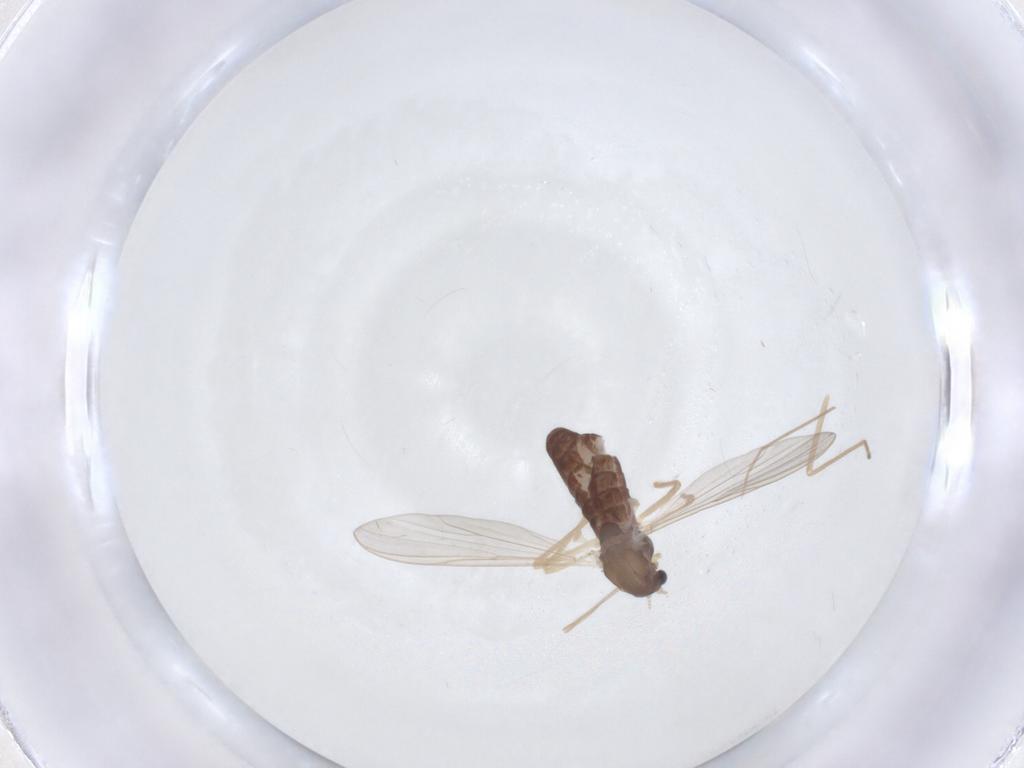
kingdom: Animalia
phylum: Arthropoda
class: Insecta
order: Diptera
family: Chironomidae
